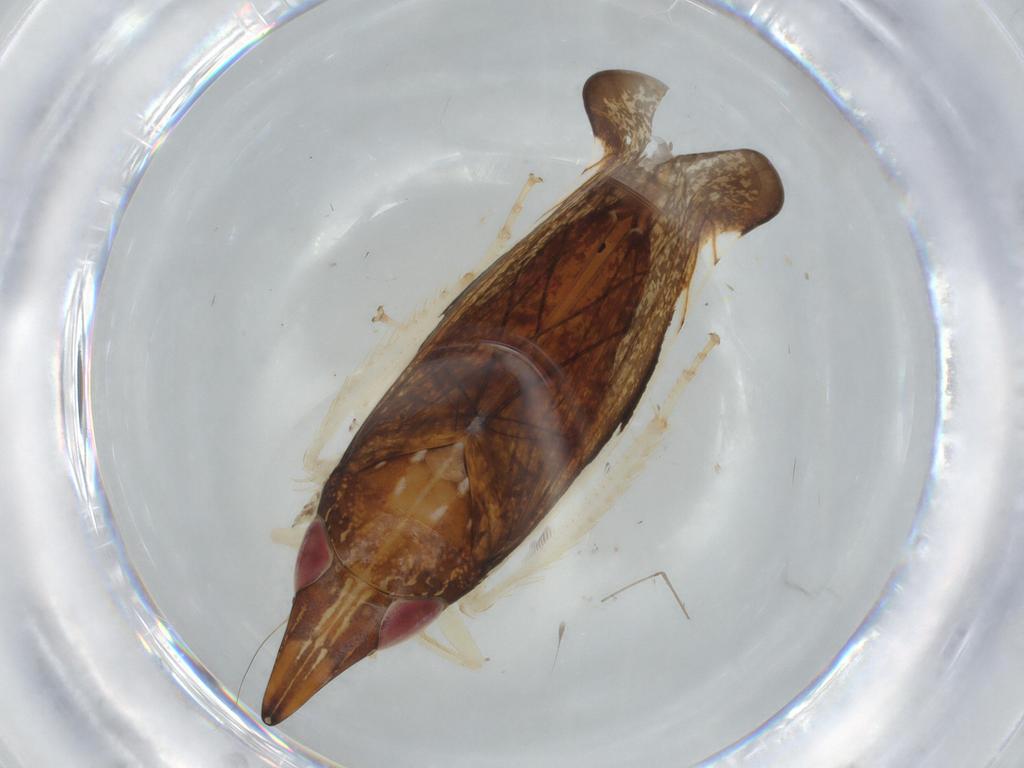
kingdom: Animalia
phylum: Arthropoda
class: Insecta
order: Hemiptera
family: Cicadellidae
